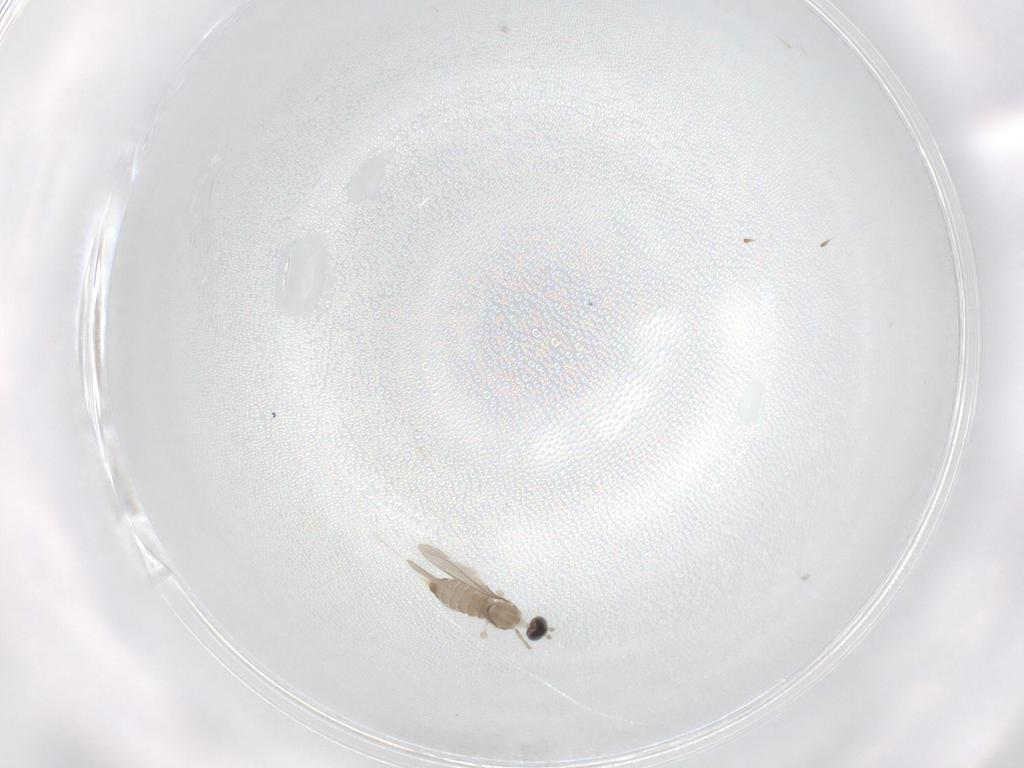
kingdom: Animalia
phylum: Arthropoda
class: Insecta
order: Diptera
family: Cecidomyiidae
